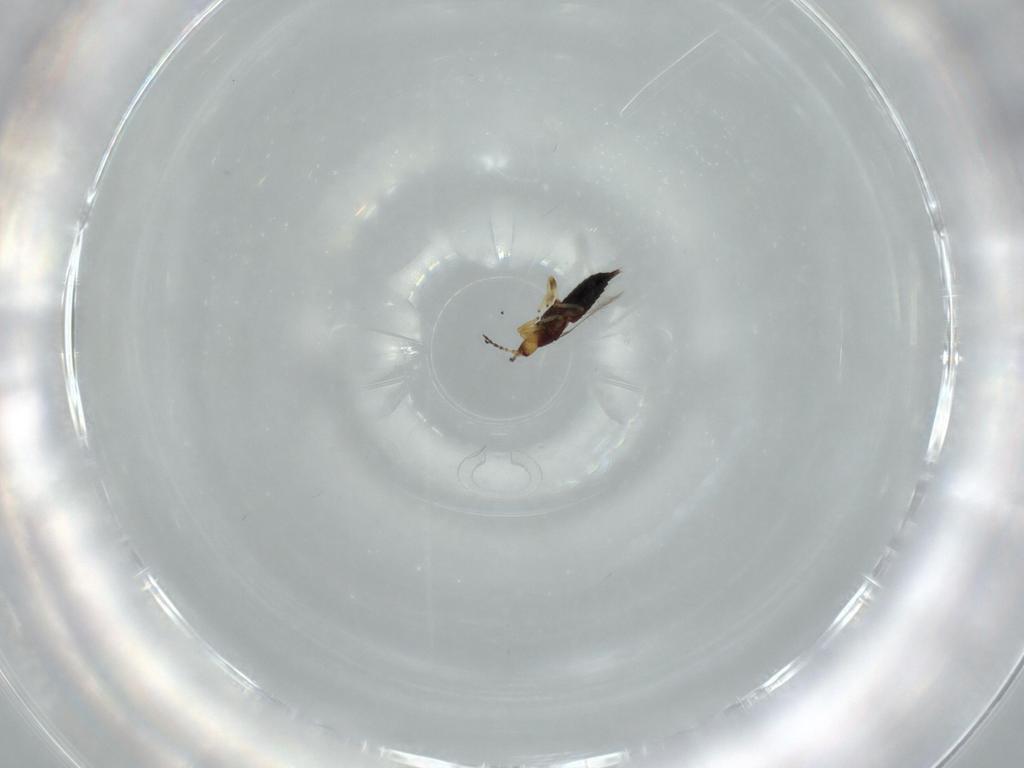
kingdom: Animalia
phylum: Arthropoda
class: Insecta
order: Thysanoptera
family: Phlaeothripidae
